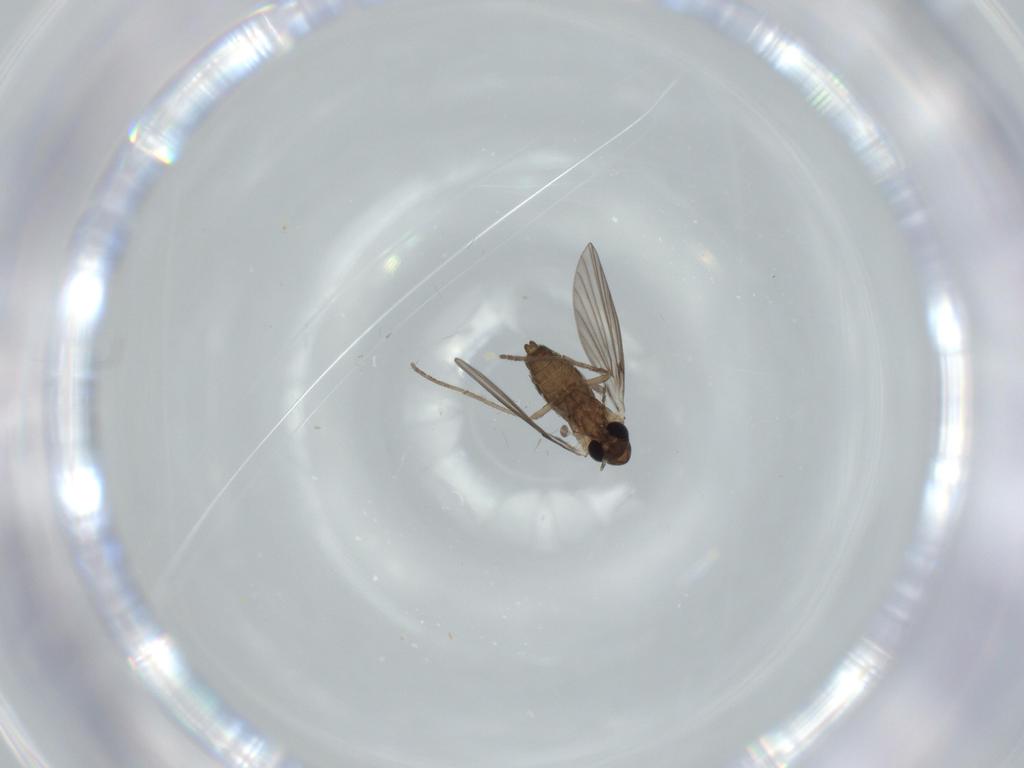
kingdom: Animalia
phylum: Arthropoda
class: Insecta
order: Diptera
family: Psychodidae
